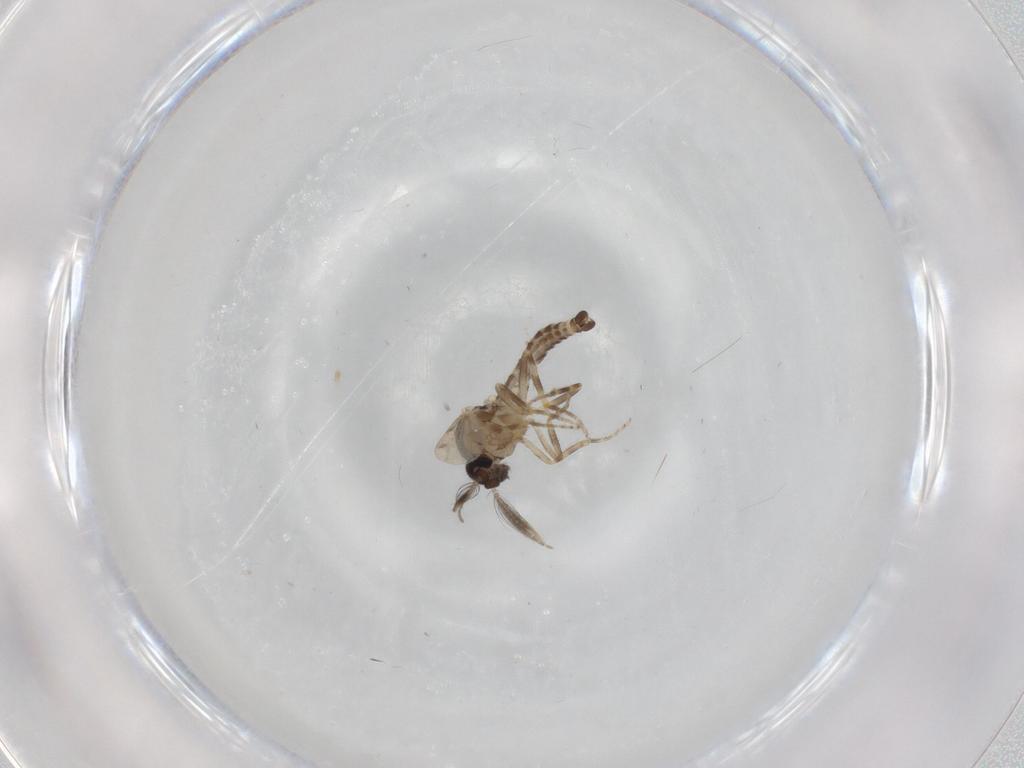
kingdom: Animalia
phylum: Arthropoda
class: Insecta
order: Diptera
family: Ceratopogonidae
